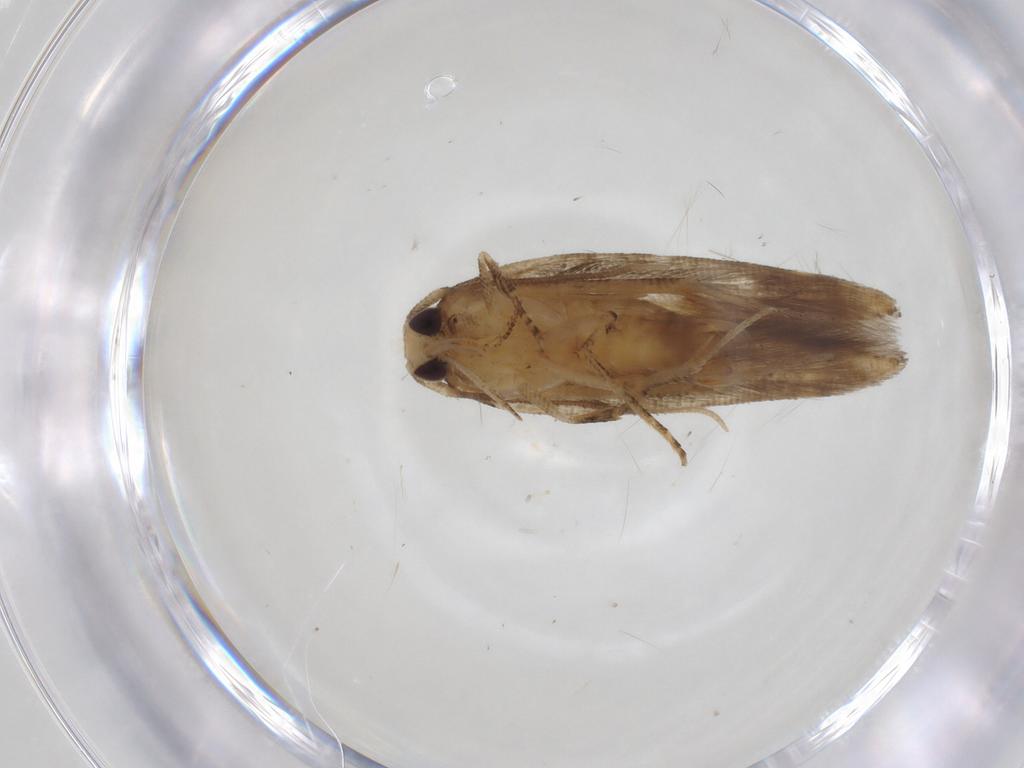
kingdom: Animalia
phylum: Arthropoda
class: Insecta
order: Lepidoptera
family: Cosmopterigidae
